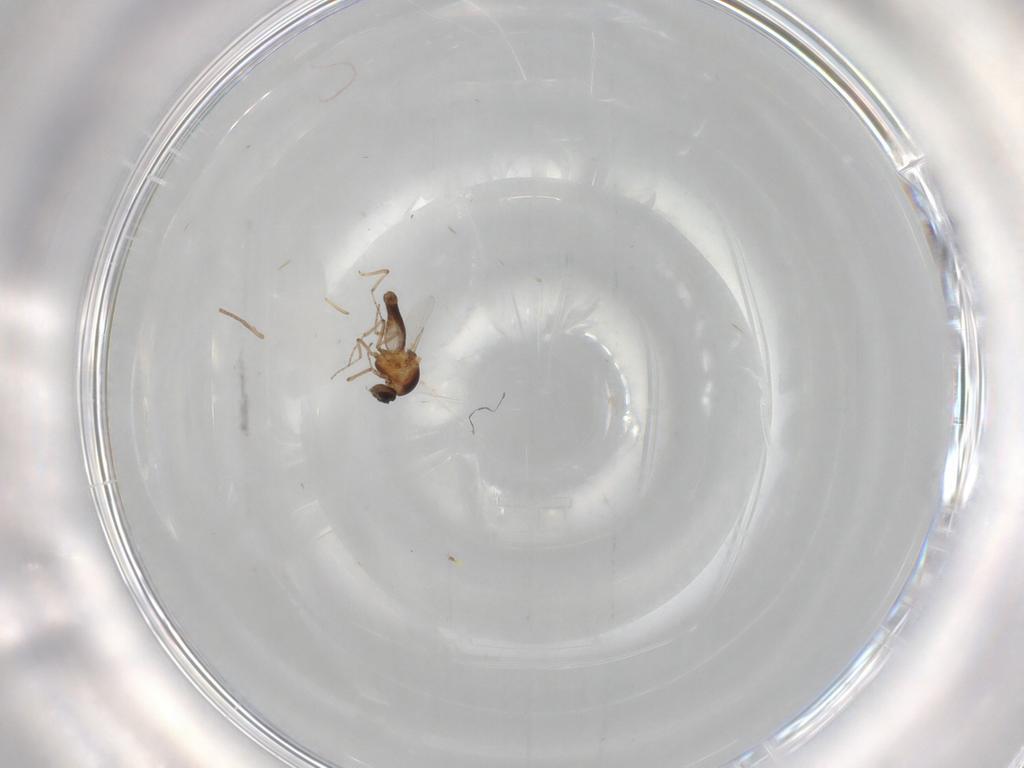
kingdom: Animalia
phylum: Arthropoda
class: Insecta
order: Diptera
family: Ceratopogonidae
